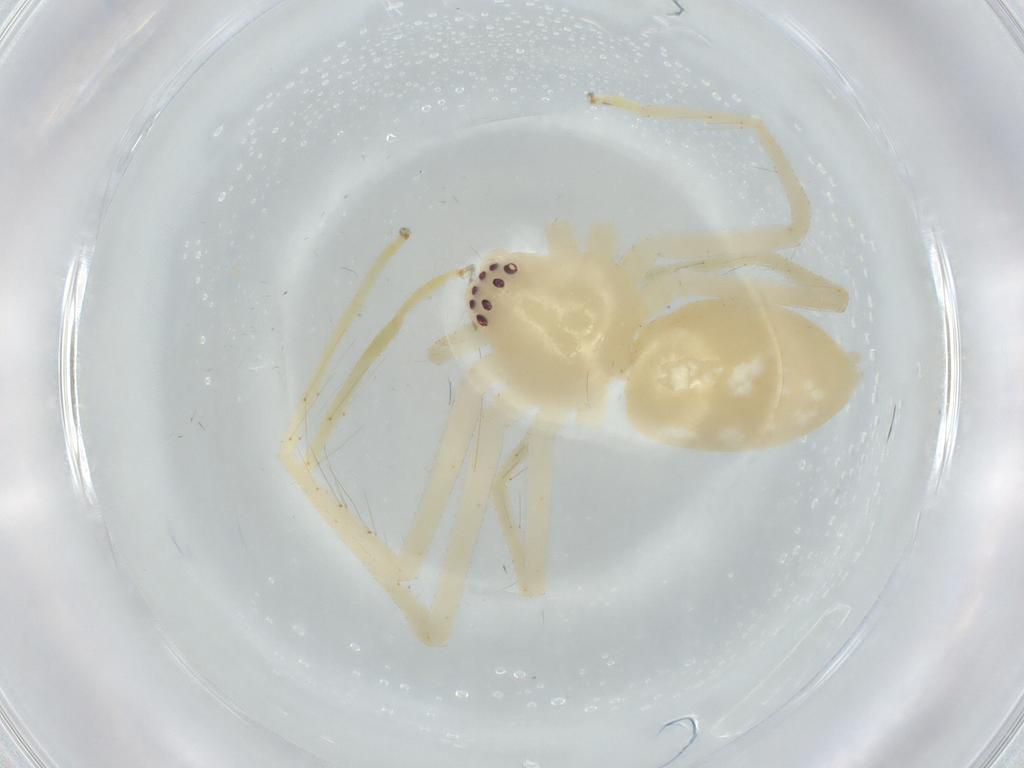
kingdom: Animalia
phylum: Arthropoda
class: Arachnida
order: Araneae
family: Sparassidae
